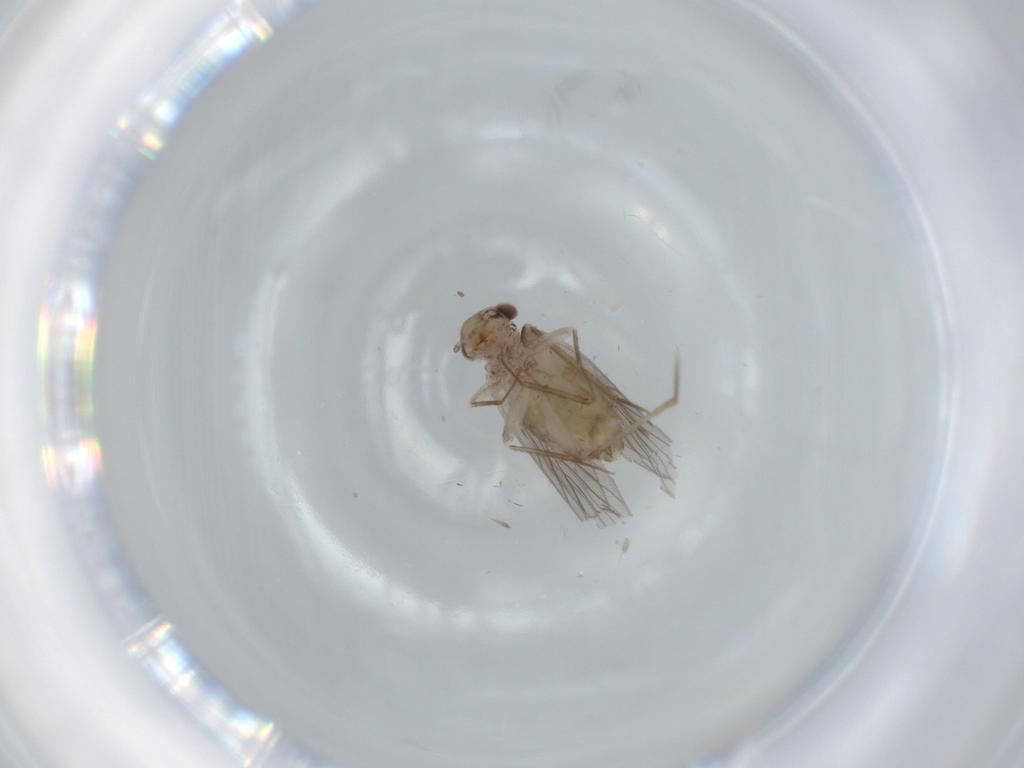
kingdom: Animalia
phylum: Arthropoda
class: Insecta
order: Psocodea
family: Lepidopsocidae
